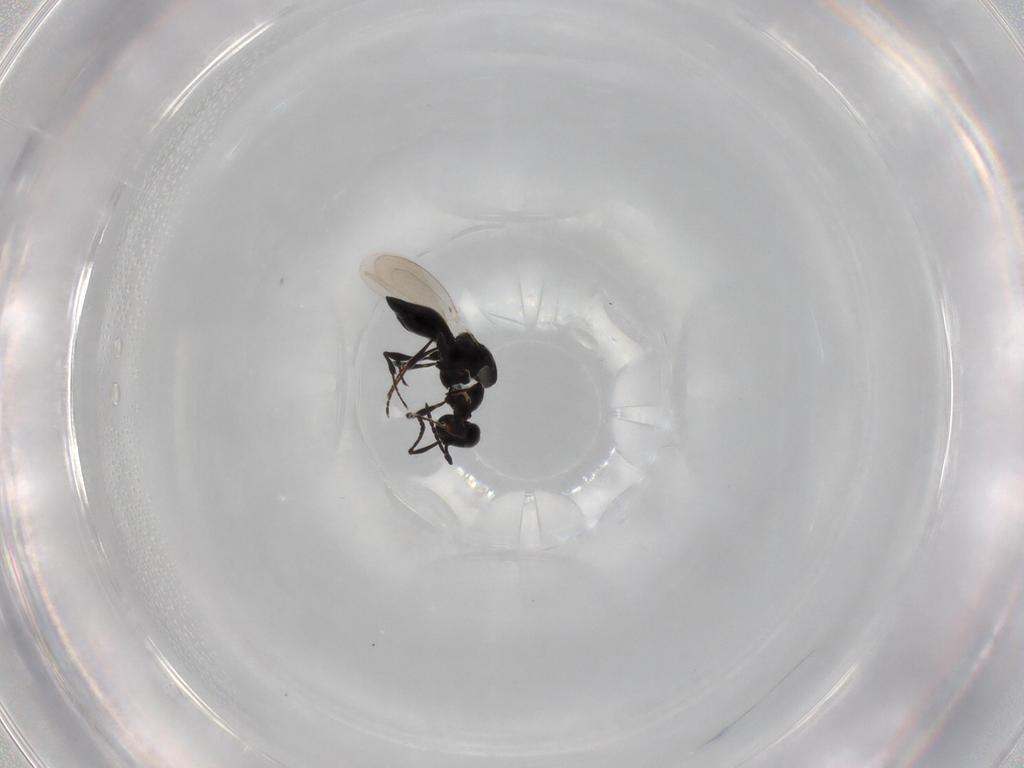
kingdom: Animalia
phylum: Arthropoda
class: Insecta
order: Diptera
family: Mythicomyiidae
